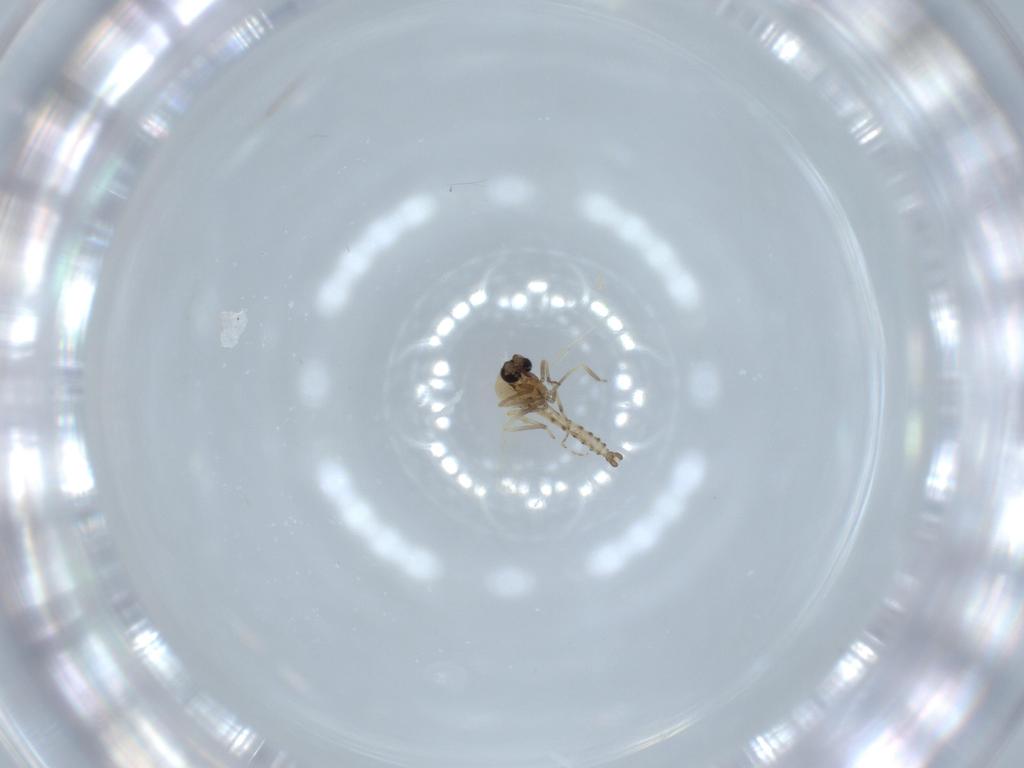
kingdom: Animalia
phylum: Arthropoda
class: Insecta
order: Diptera
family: Ceratopogonidae
